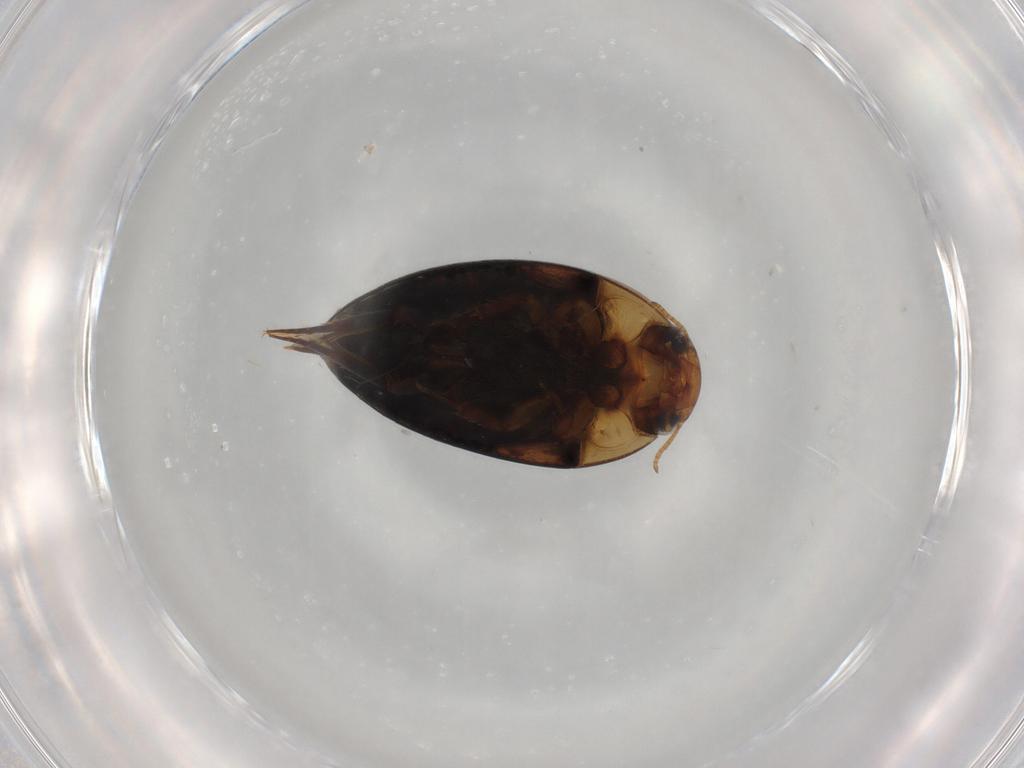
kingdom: Animalia
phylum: Arthropoda
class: Insecta
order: Coleoptera
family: Noteridae
